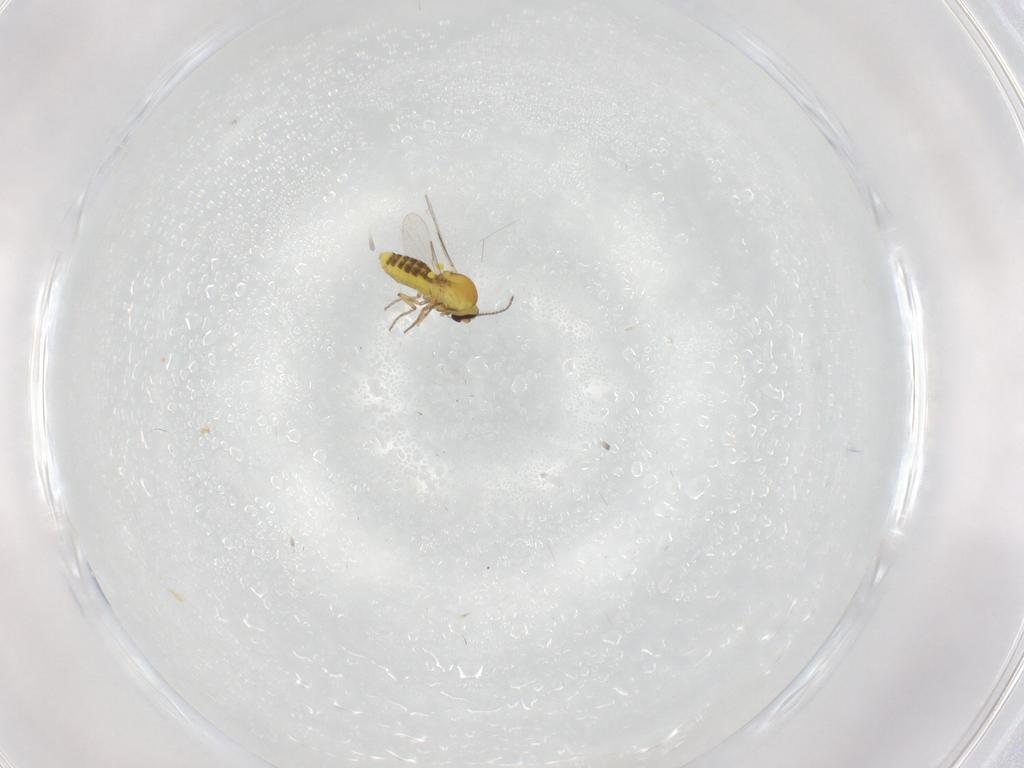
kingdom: Animalia
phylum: Arthropoda
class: Insecta
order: Diptera
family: Ceratopogonidae
